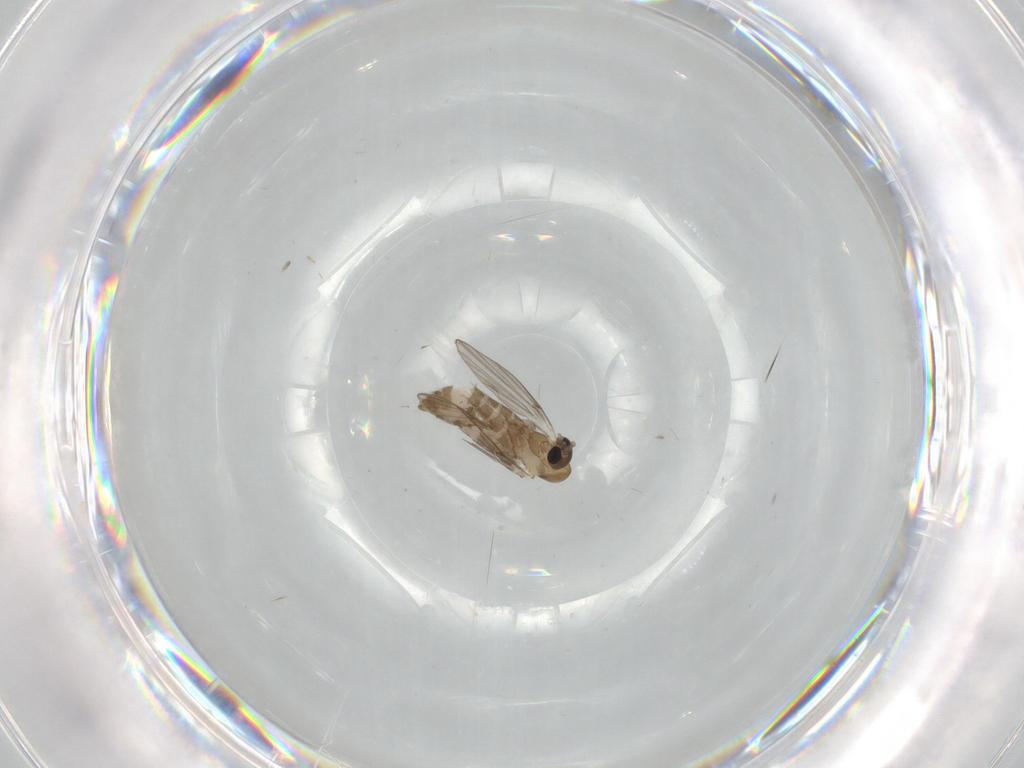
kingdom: Animalia
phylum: Arthropoda
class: Insecta
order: Diptera
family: Psychodidae
